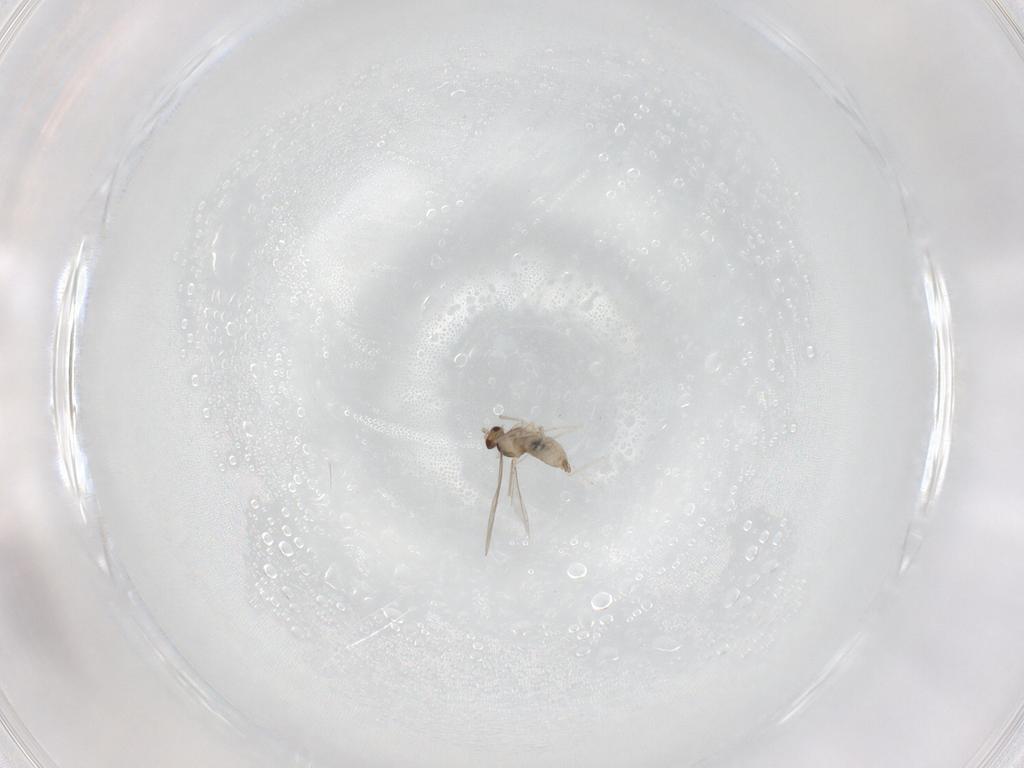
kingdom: Animalia
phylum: Arthropoda
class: Insecta
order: Diptera
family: Cecidomyiidae
